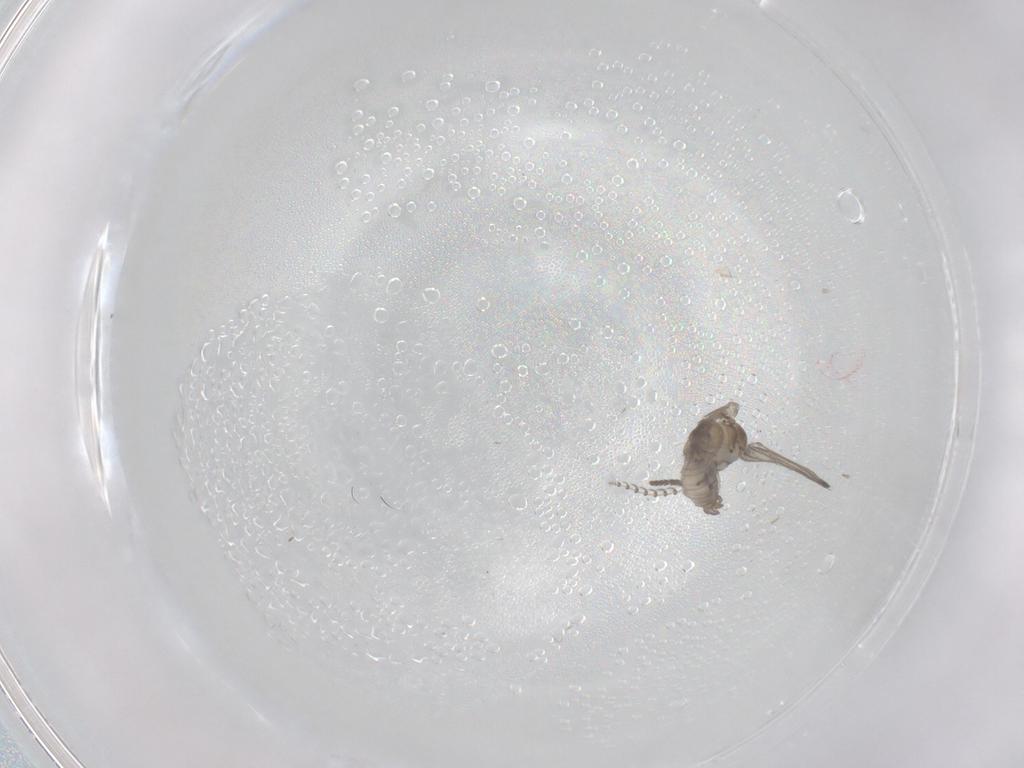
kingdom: Animalia
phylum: Arthropoda
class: Insecta
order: Diptera
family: Psychodidae
